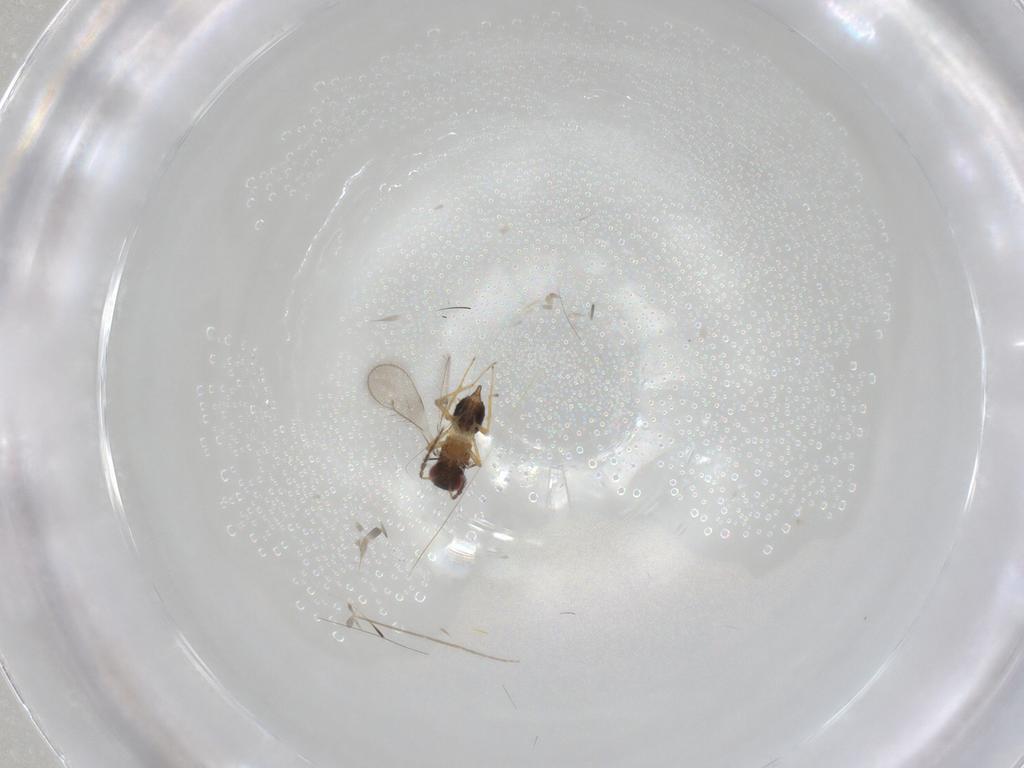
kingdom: Animalia
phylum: Arthropoda
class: Insecta
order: Hymenoptera
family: Eulophidae
